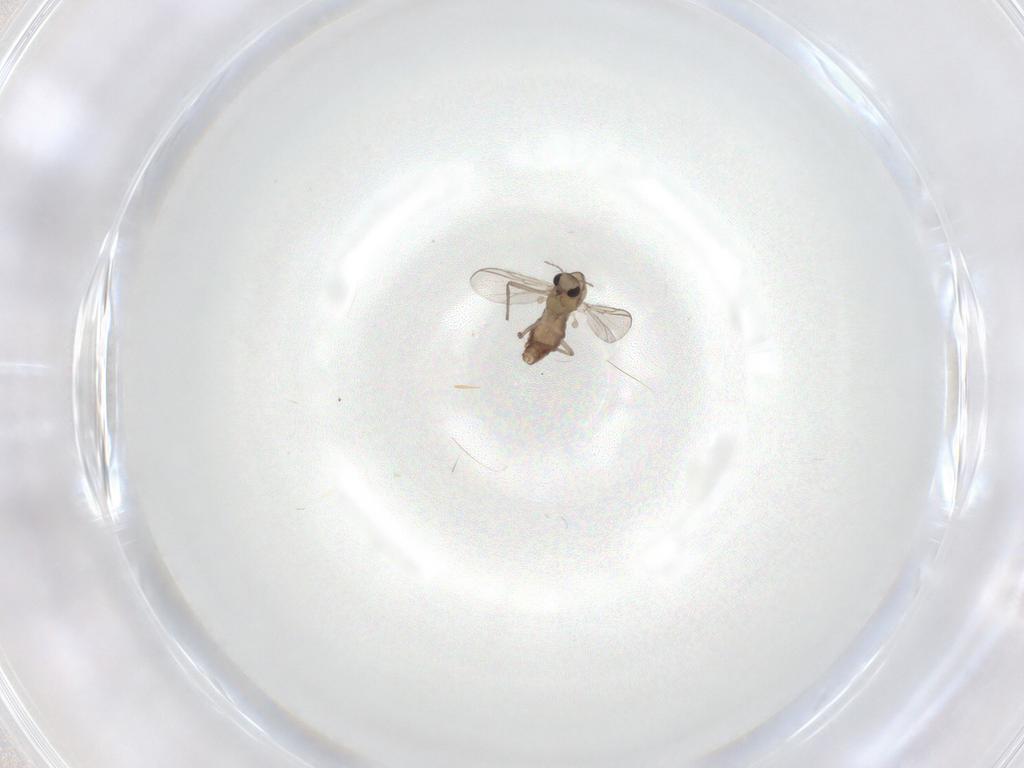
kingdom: Animalia
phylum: Arthropoda
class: Insecta
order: Diptera
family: Chironomidae
